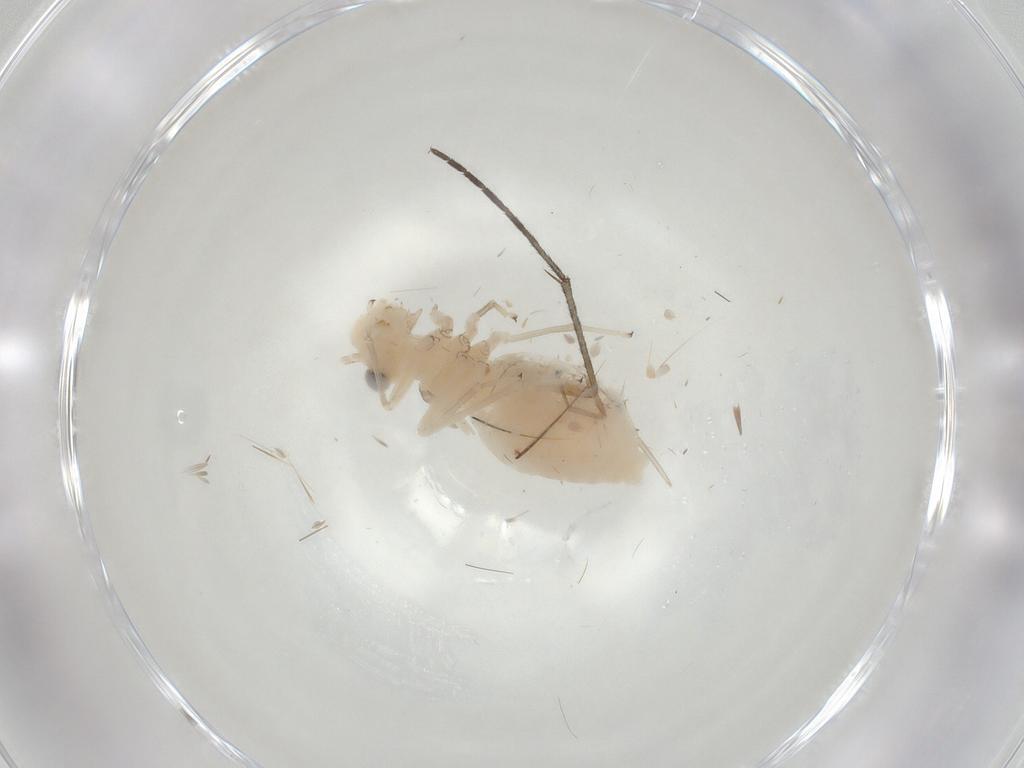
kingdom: Animalia
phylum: Arthropoda
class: Insecta
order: Psocodea
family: Caeciliusidae
